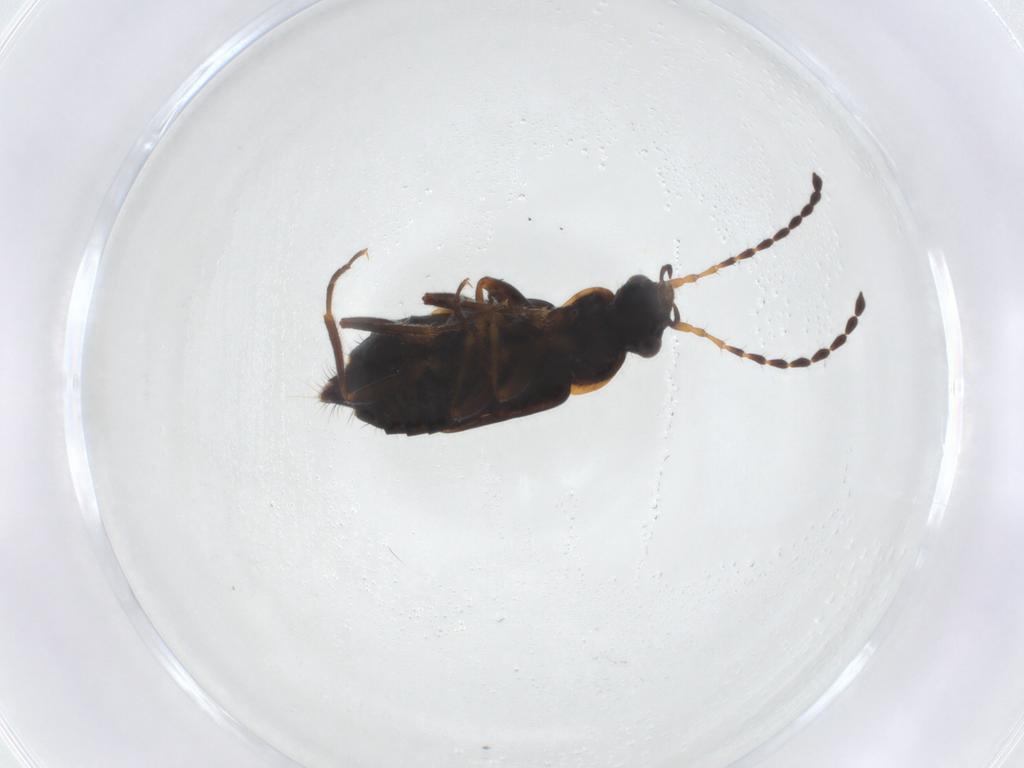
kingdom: Animalia
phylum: Arthropoda
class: Insecta
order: Coleoptera
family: Staphylinidae
